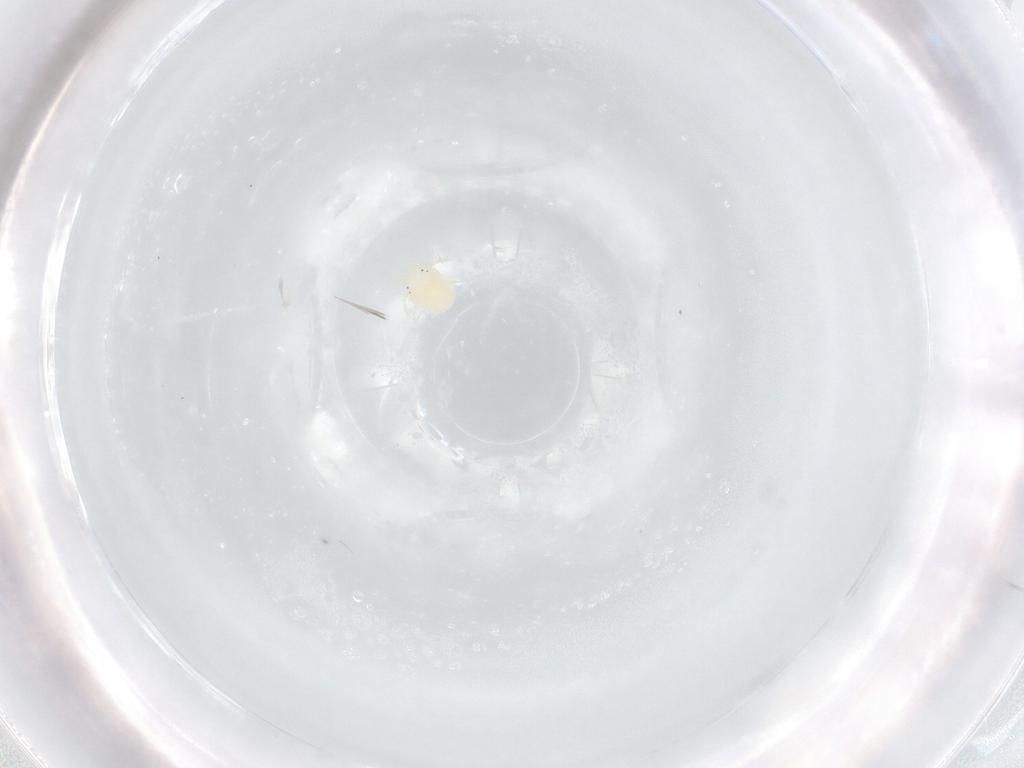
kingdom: Animalia
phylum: Arthropoda
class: Arachnida
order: Trombidiformes
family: Hydryphantidae
